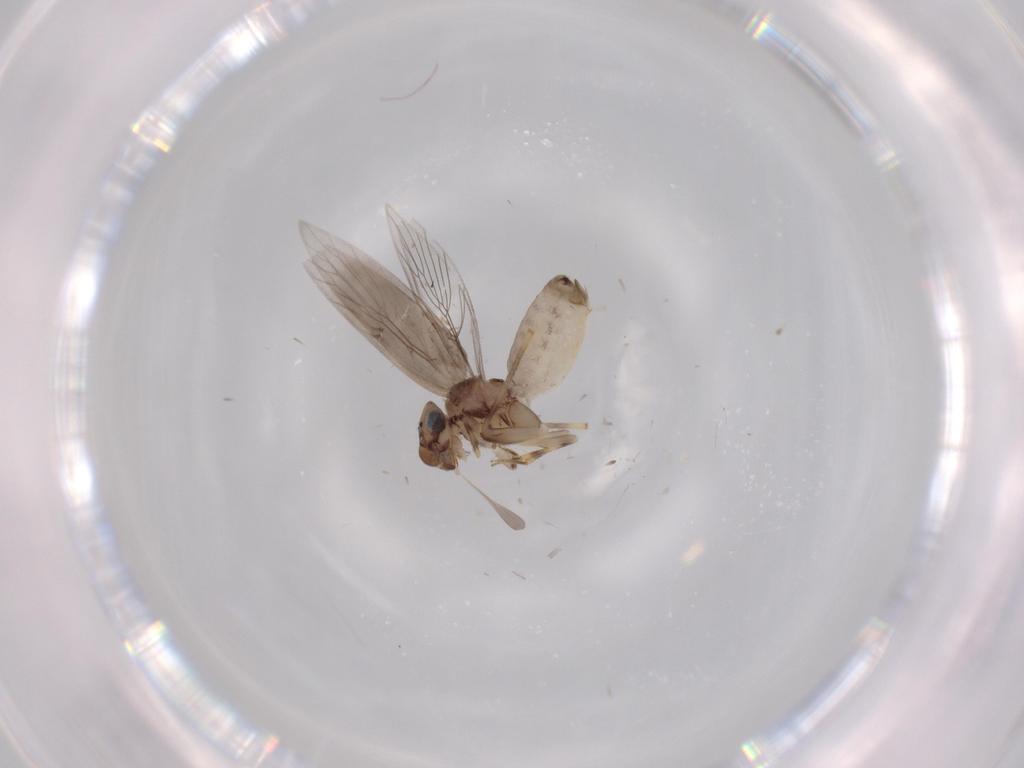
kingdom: Animalia
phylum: Arthropoda
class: Insecta
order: Psocodea
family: Lepidopsocidae
